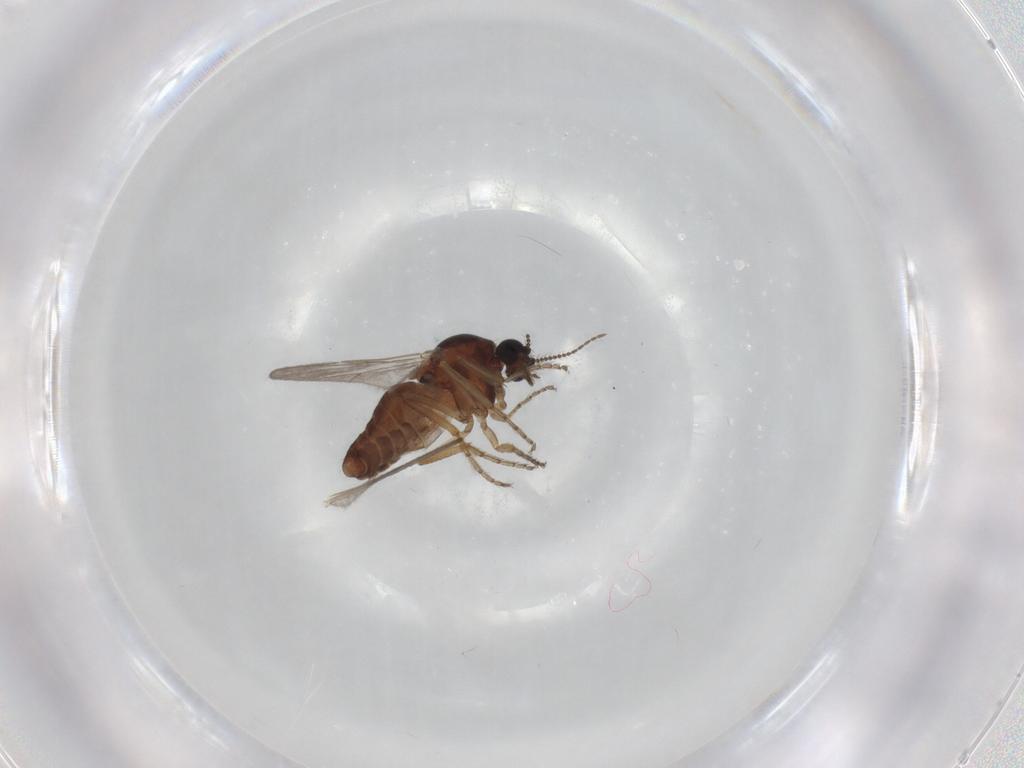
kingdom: Animalia
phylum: Arthropoda
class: Insecta
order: Diptera
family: Ceratopogonidae
